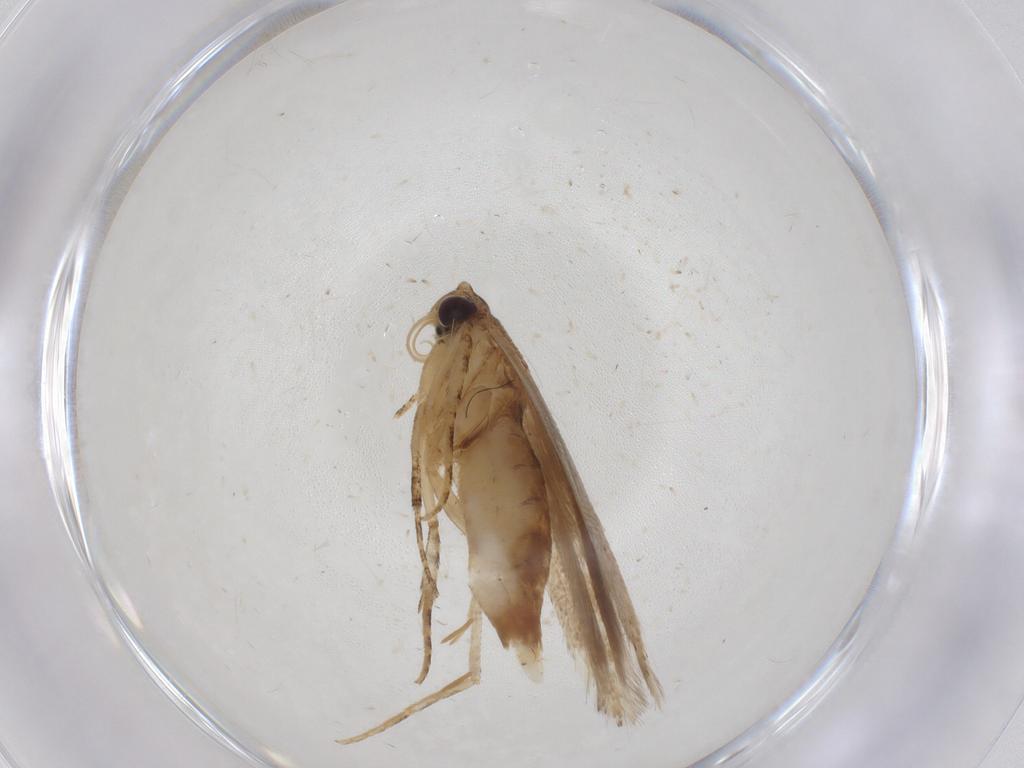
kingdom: Animalia
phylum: Arthropoda
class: Insecta
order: Lepidoptera
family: Gelechiidae
